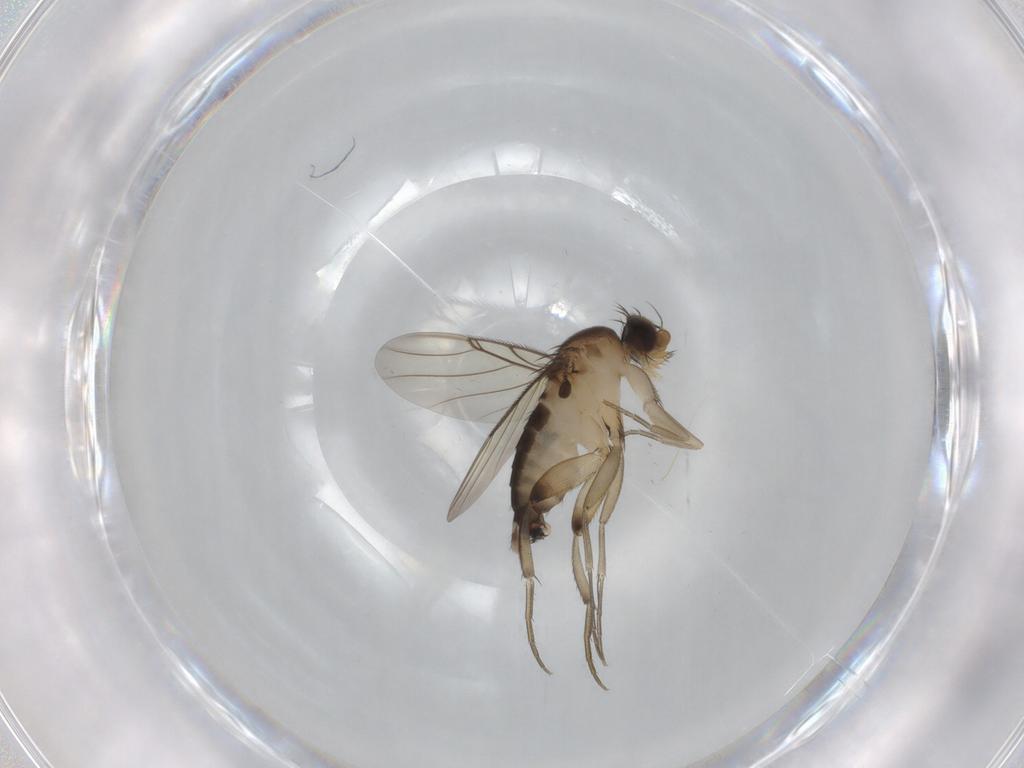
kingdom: Animalia
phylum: Arthropoda
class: Insecta
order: Diptera
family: Phoridae
